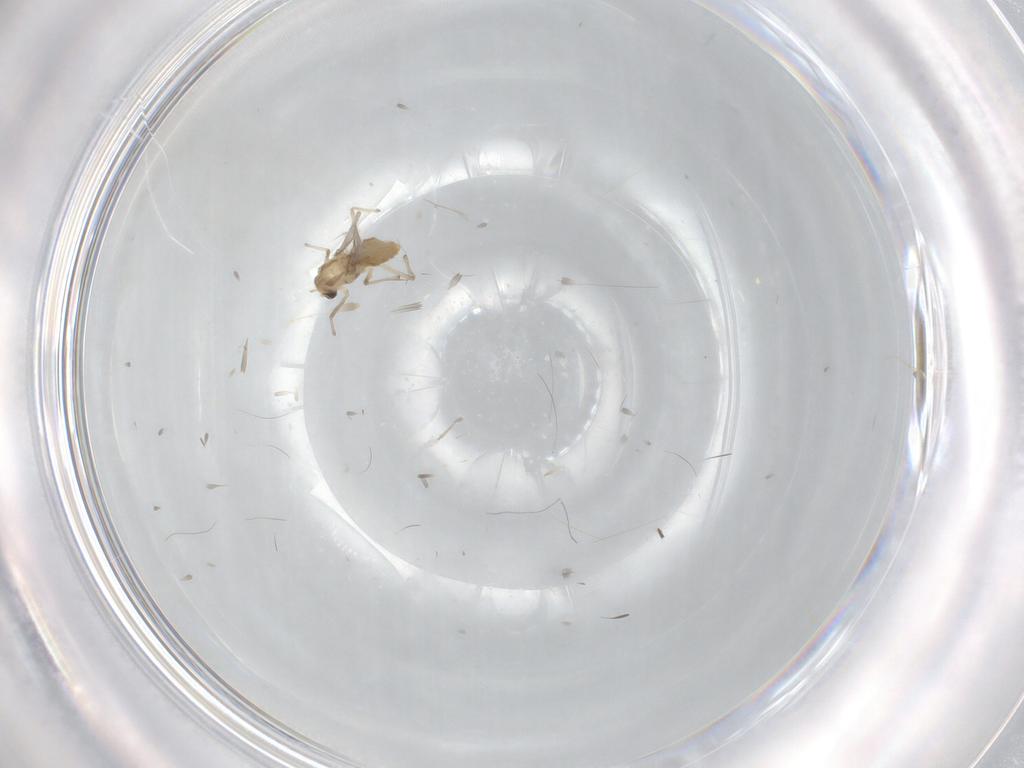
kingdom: Animalia
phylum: Arthropoda
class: Insecta
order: Diptera
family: Chironomidae
